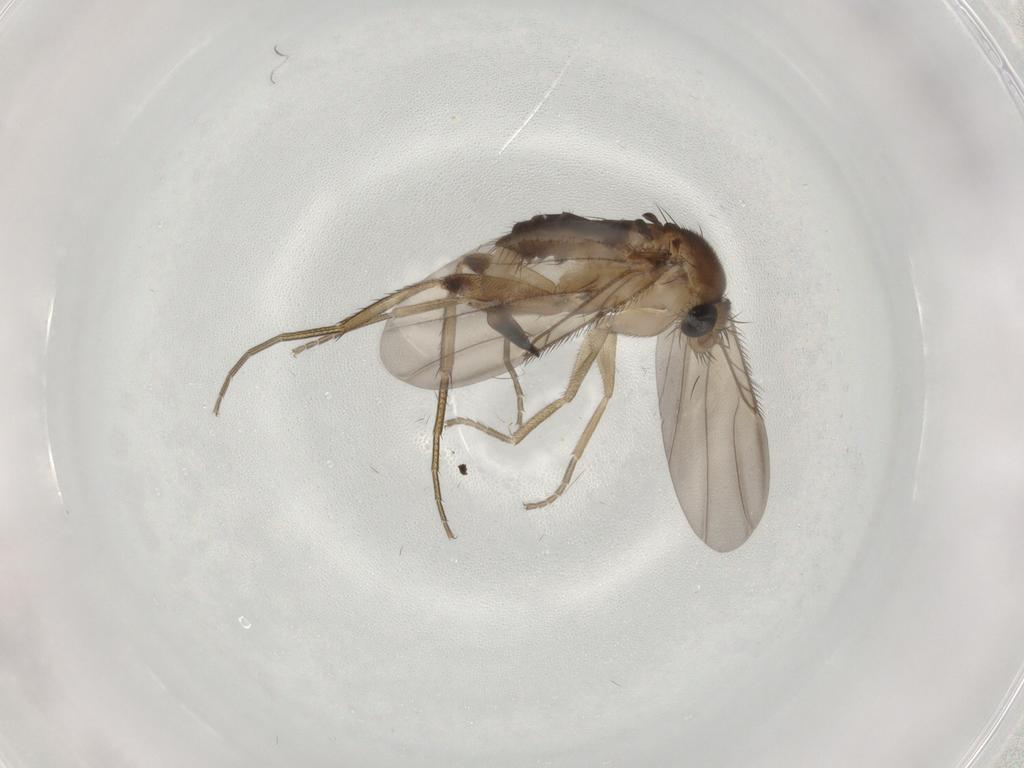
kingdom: Animalia
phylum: Arthropoda
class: Insecta
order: Diptera
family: Phoridae
